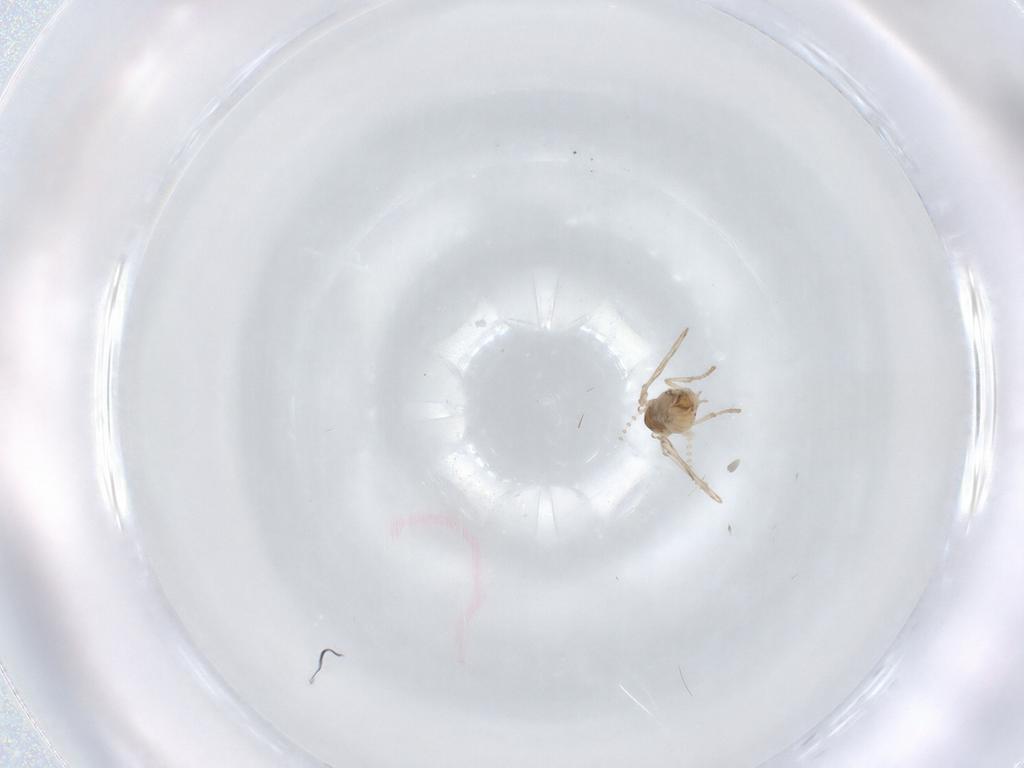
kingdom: Animalia
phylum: Arthropoda
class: Insecta
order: Diptera
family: Psychodidae
